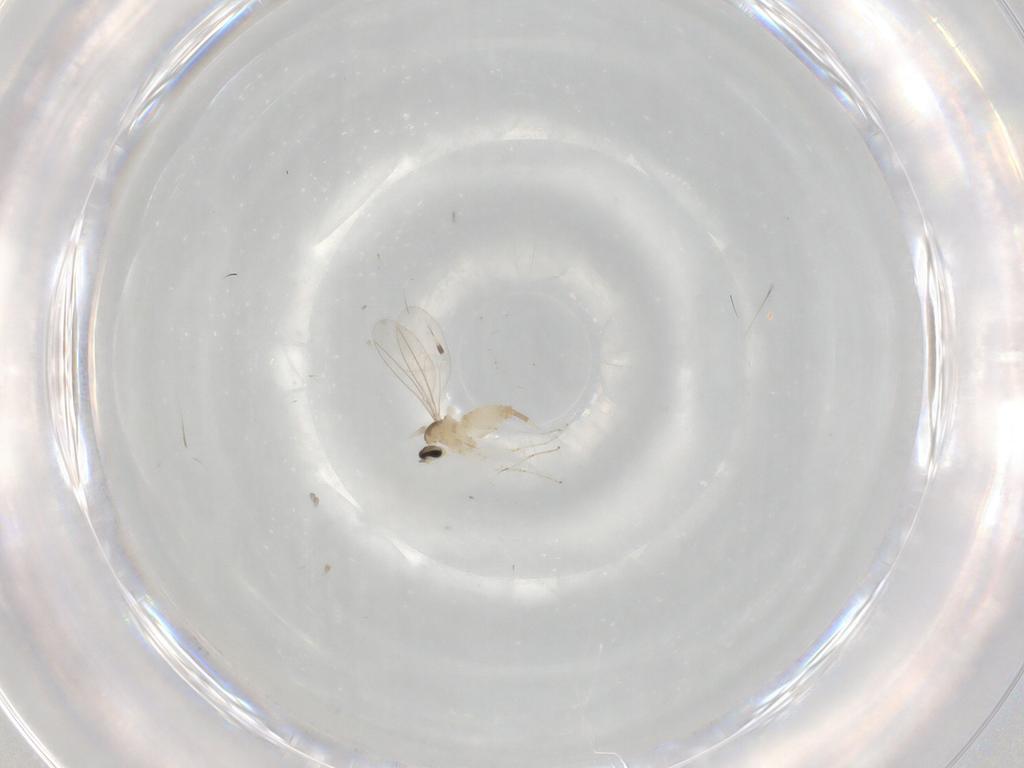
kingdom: Animalia
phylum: Arthropoda
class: Insecta
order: Diptera
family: Cecidomyiidae
